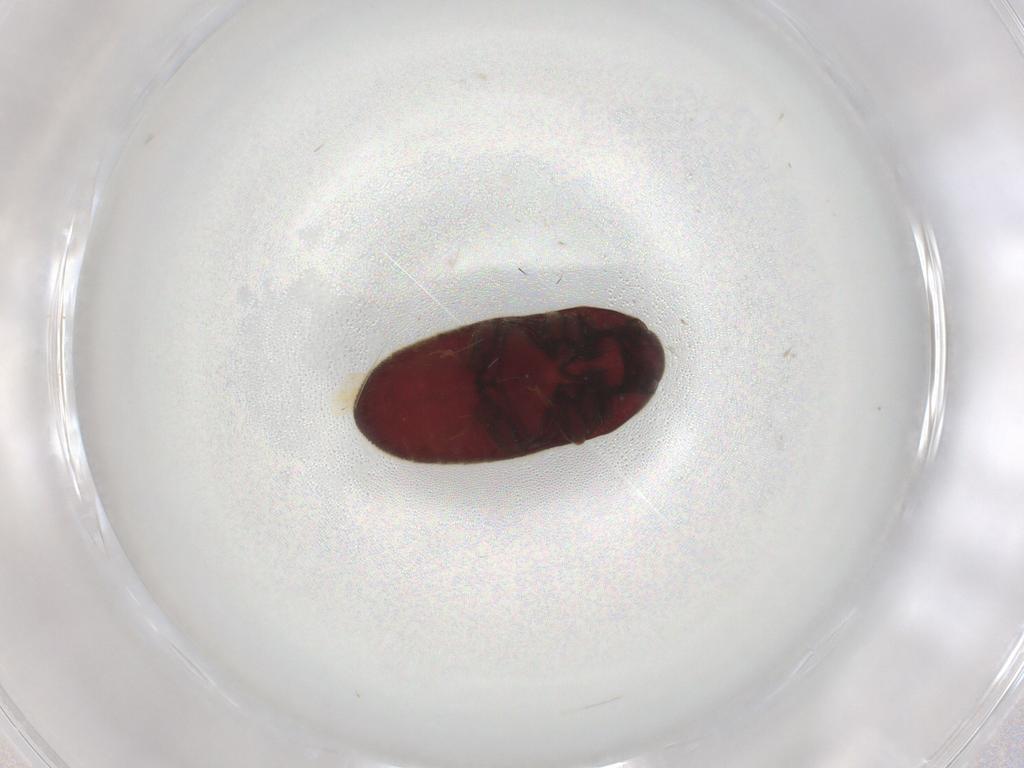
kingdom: Animalia
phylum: Arthropoda
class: Insecta
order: Coleoptera
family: Throscidae
